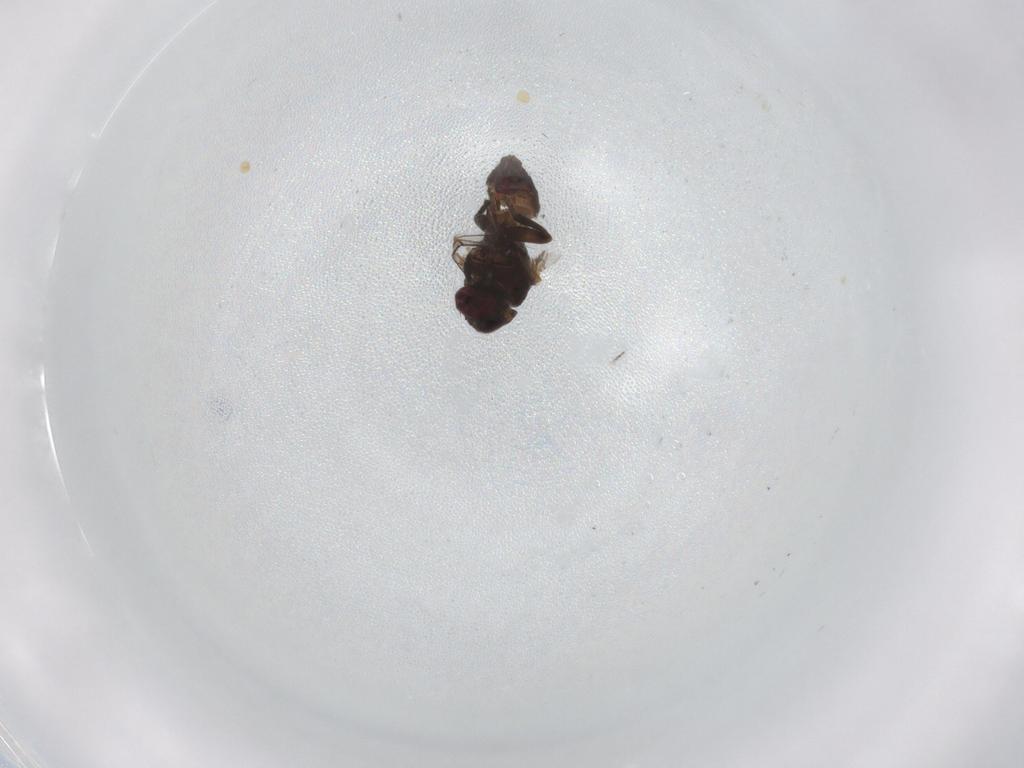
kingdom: Animalia
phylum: Arthropoda
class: Insecta
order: Diptera
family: Agromyzidae
